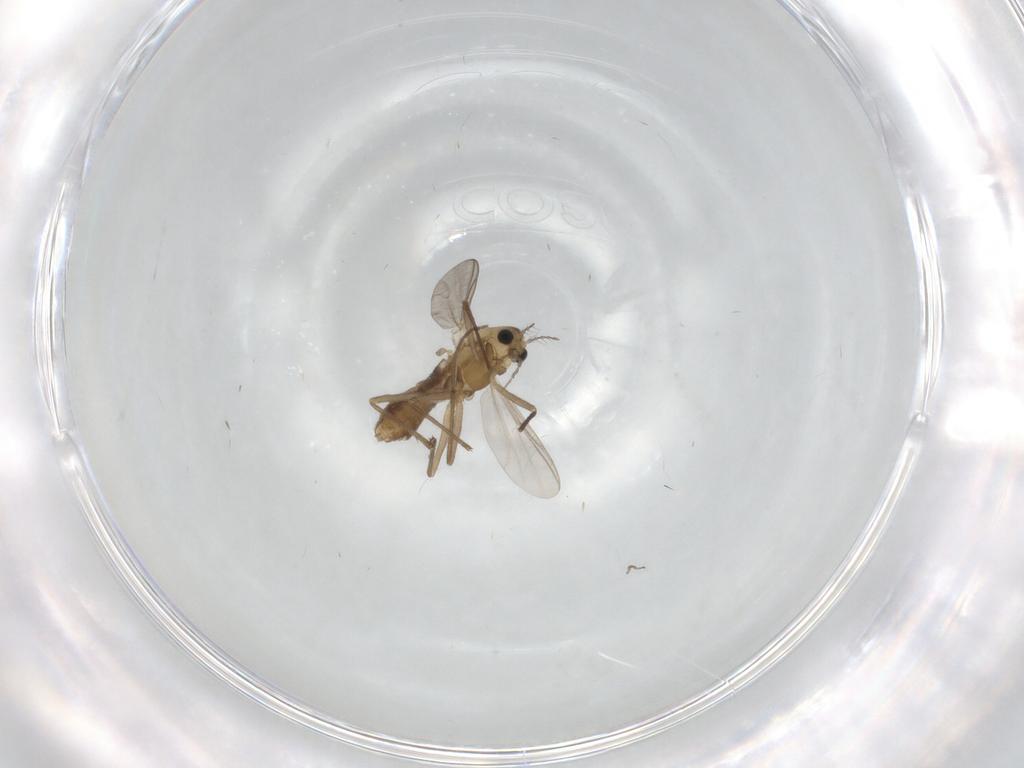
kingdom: Animalia
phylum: Arthropoda
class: Insecta
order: Diptera
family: Chironomidae
